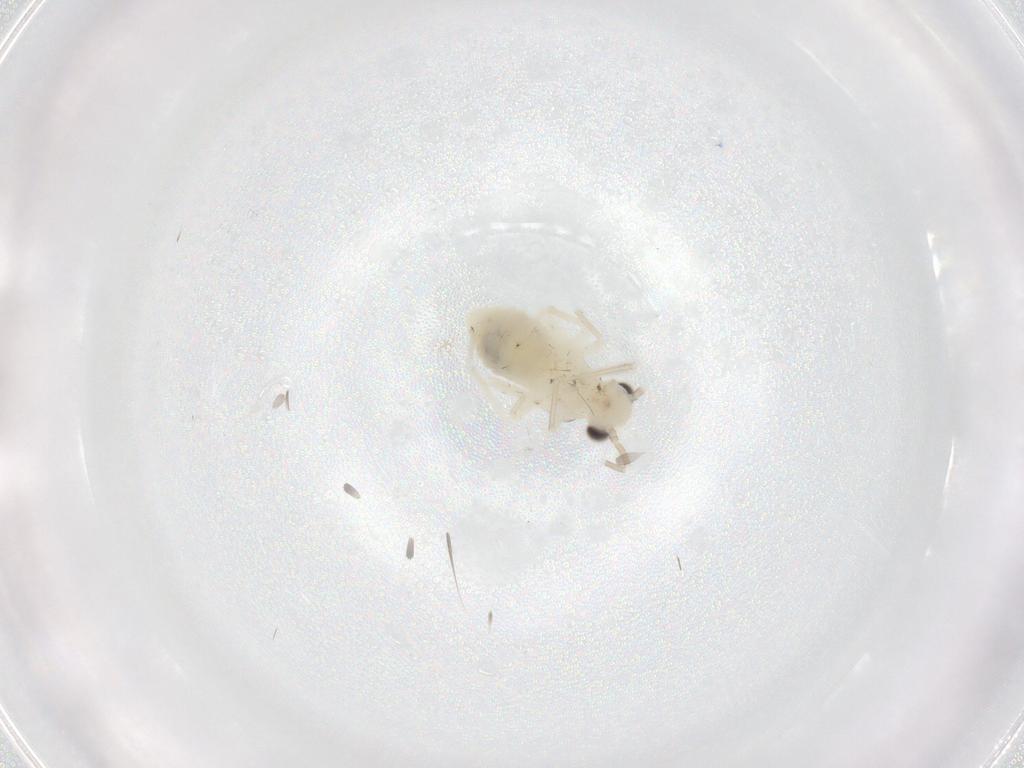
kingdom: Animalia
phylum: Arthropoda
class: Insecta
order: Psocodea
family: Caeciliusidae
